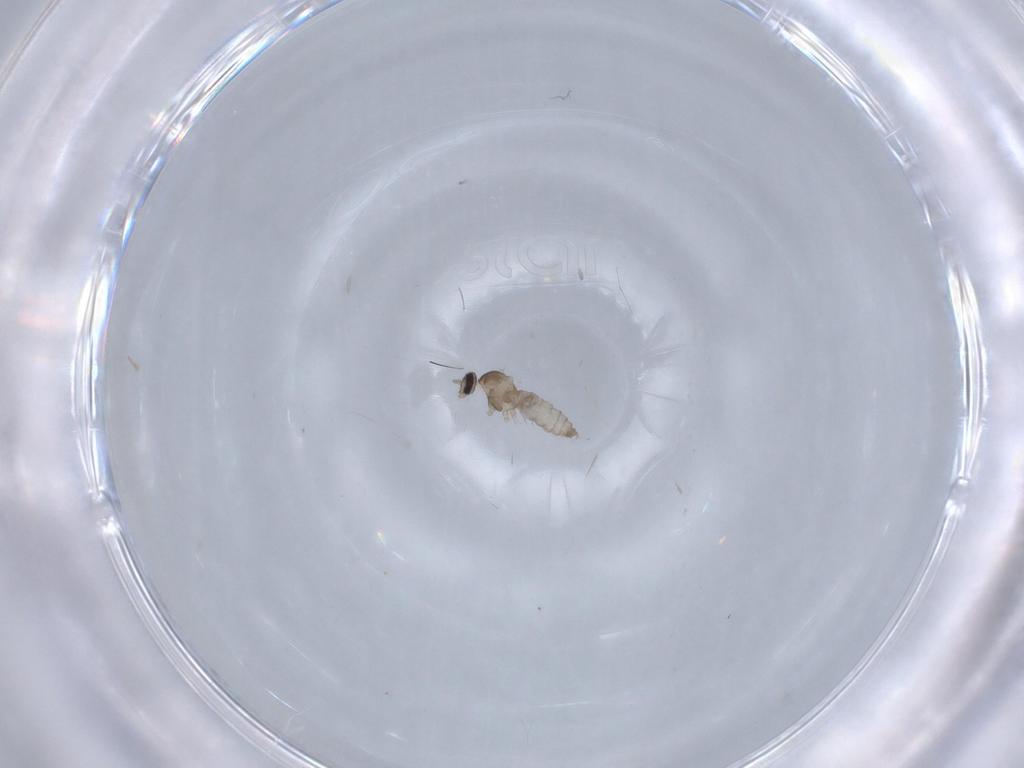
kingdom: Animalia
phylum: Arthropoda
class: Insecta
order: Diptera
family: Cecidomyiidae
